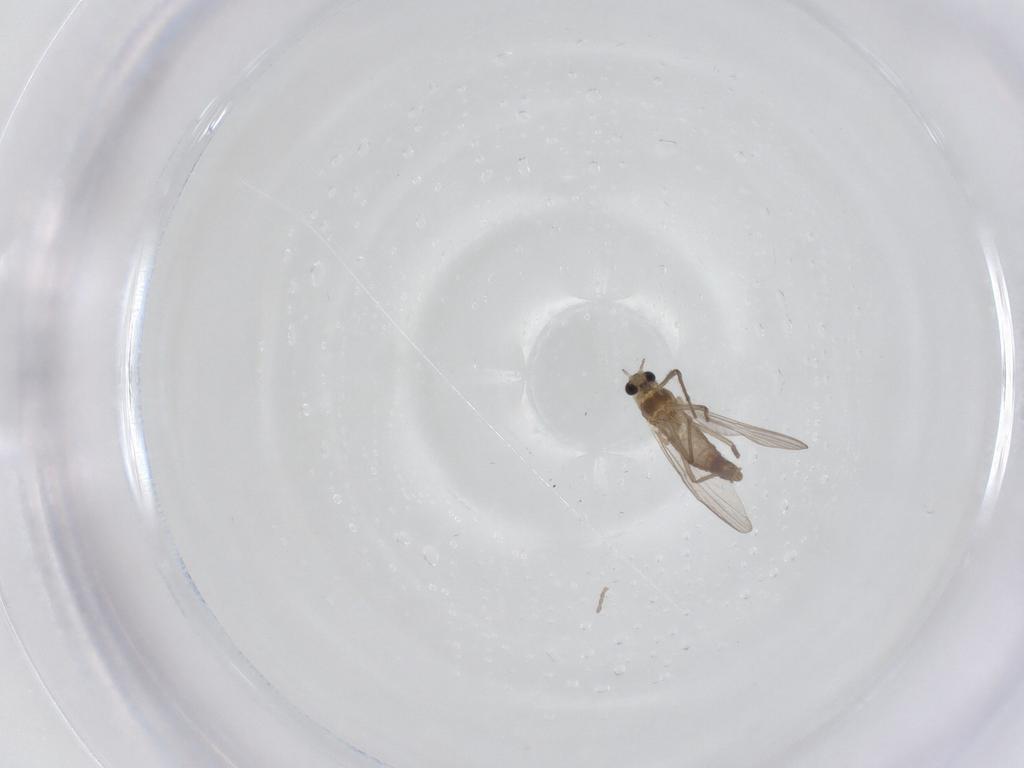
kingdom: Animalia
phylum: Arthropoda
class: Insecta
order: Diptera
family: Chironomidae
